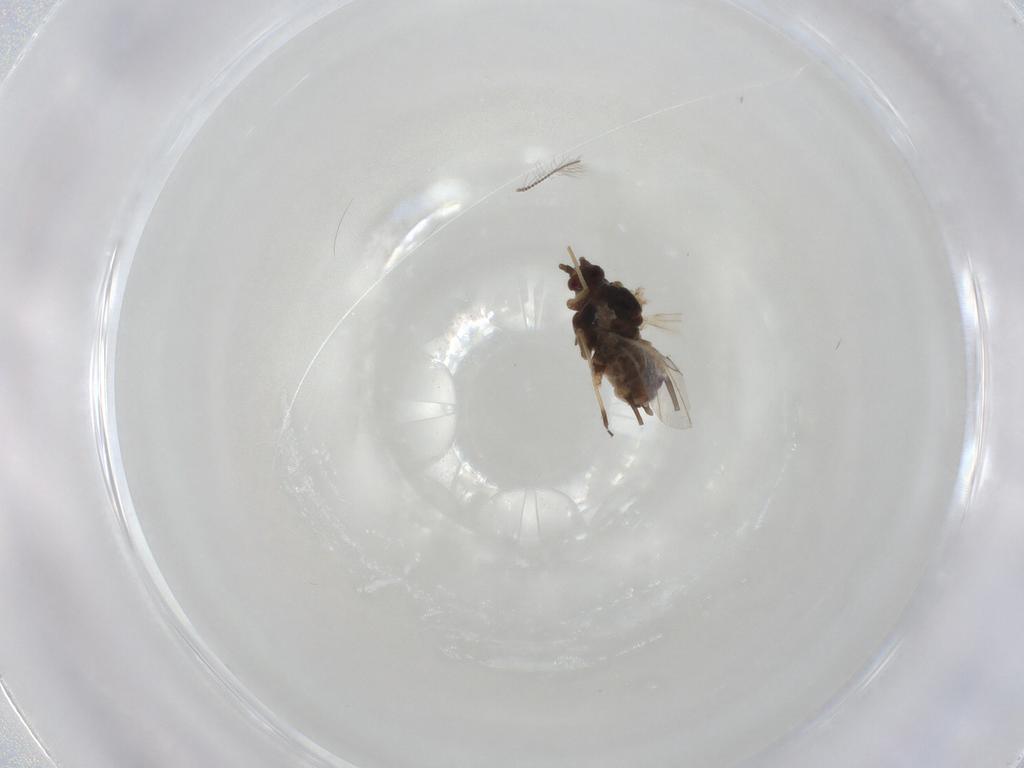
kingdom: Animalia
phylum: Arthropoda
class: Insecta
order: Hemiptera
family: Aphididae
